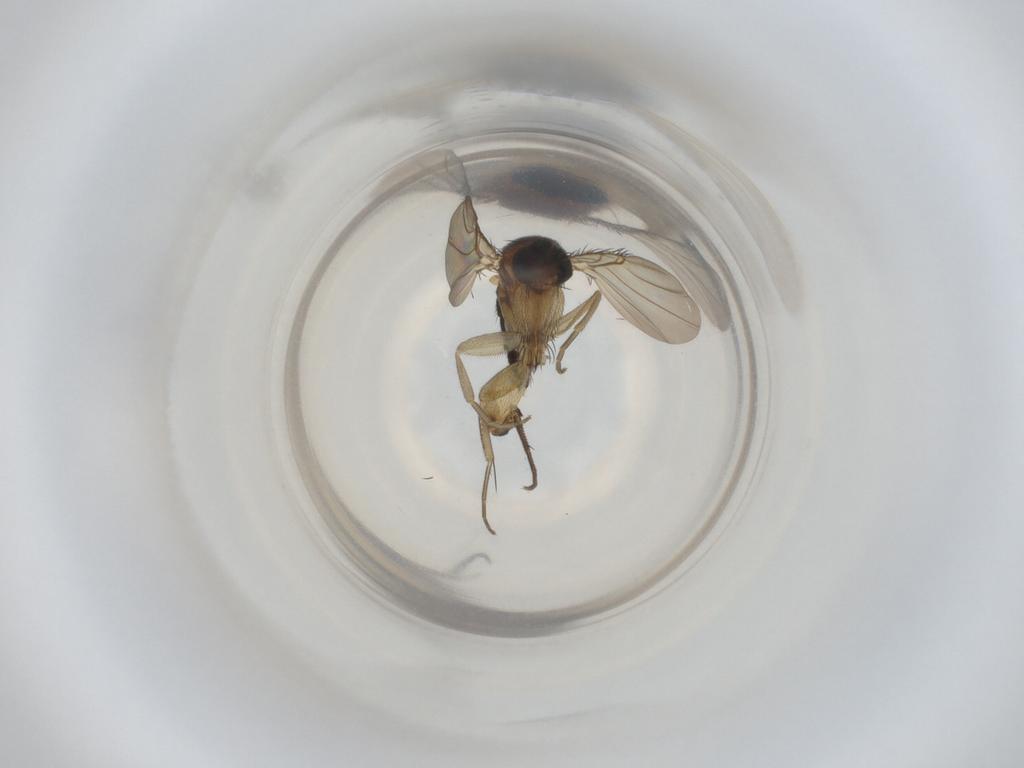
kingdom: Animalia
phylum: Arthropoda
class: Insecta
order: Diptera
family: Phoridae
